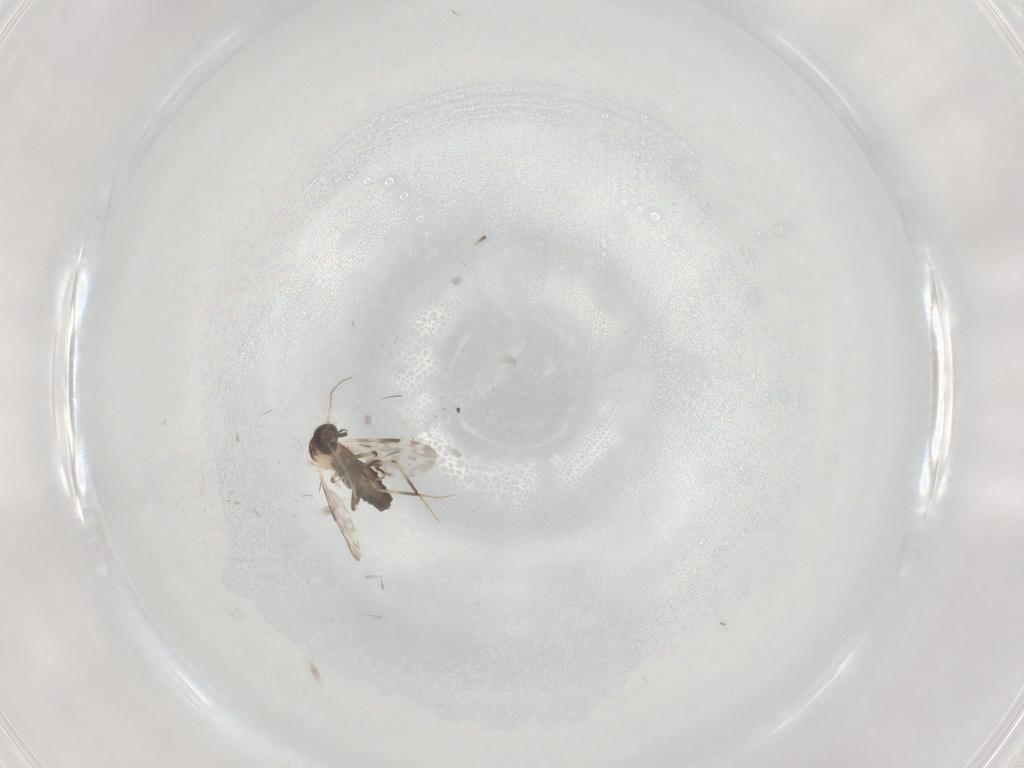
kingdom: Animalia
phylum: Arthropoda
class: Insecta
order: Diptera
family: Ceratopogonidae
